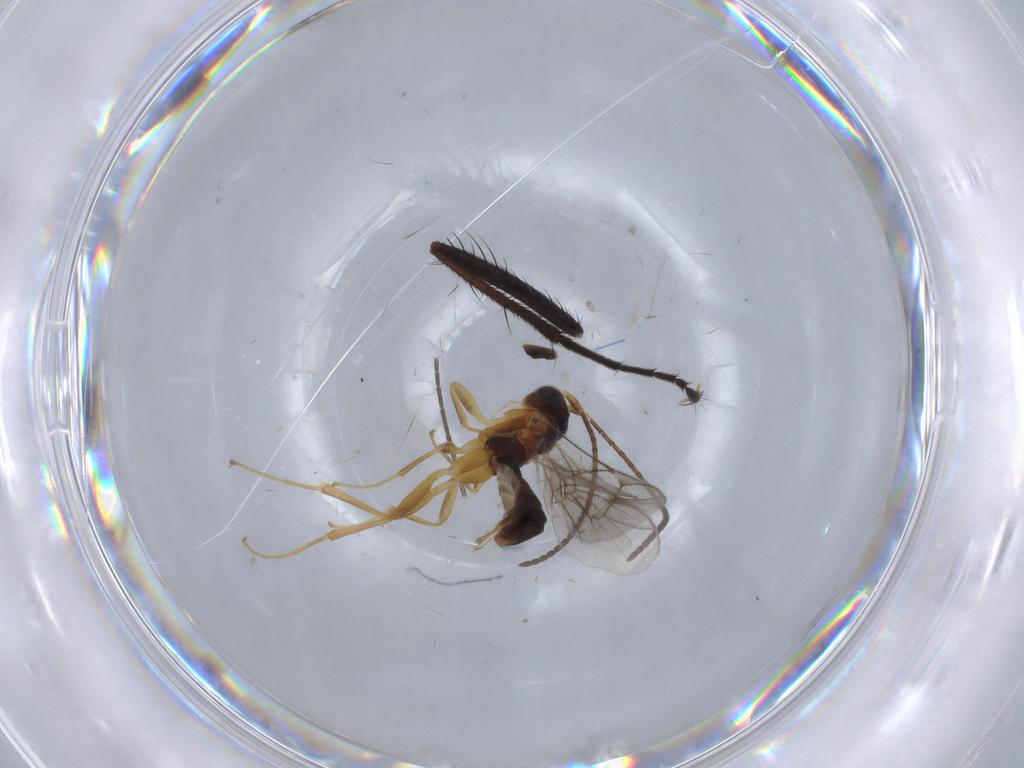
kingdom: Animalia
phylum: Arthropoda
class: Insecta
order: Hymenoptera
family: Ichneumonidae
